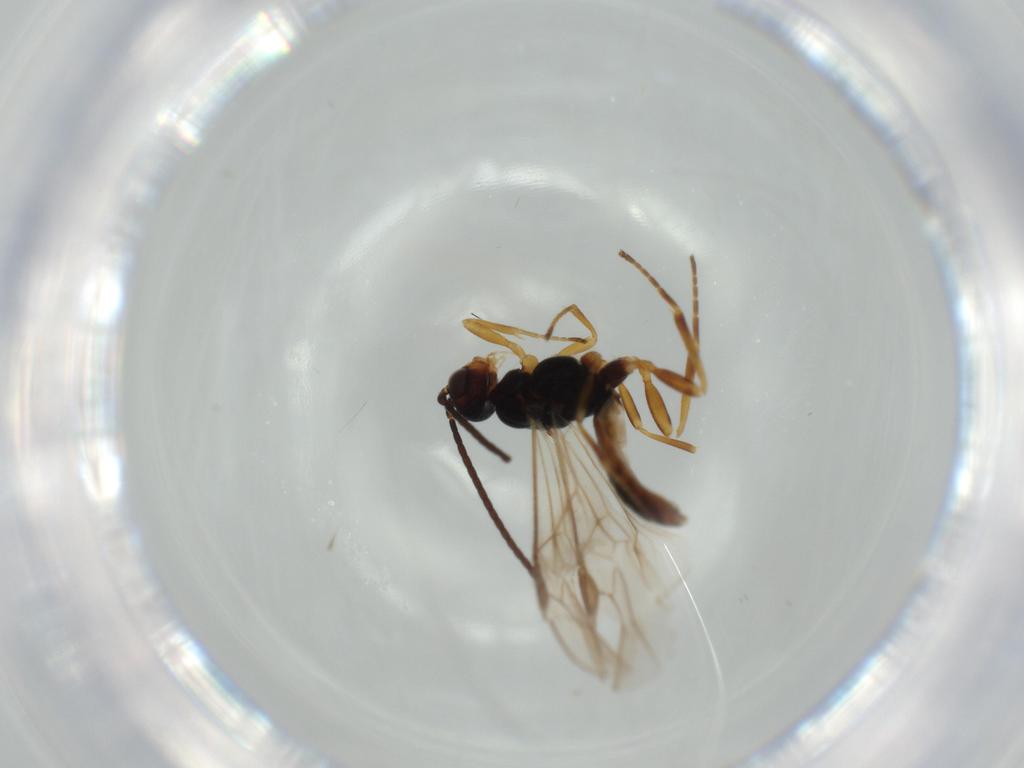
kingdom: Animalia
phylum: Arthropoda
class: Insecta
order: Hymenoptera
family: Braconidae
